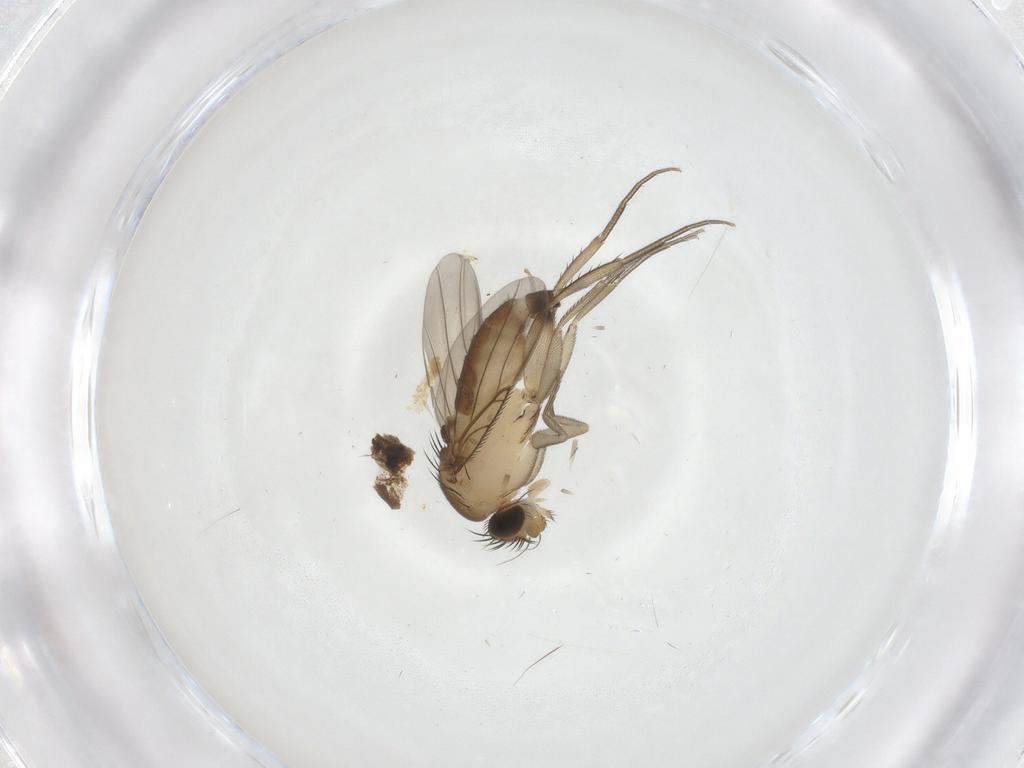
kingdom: Animalia
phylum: Arthropoda
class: Insecta
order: Diptera
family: Phoridae
